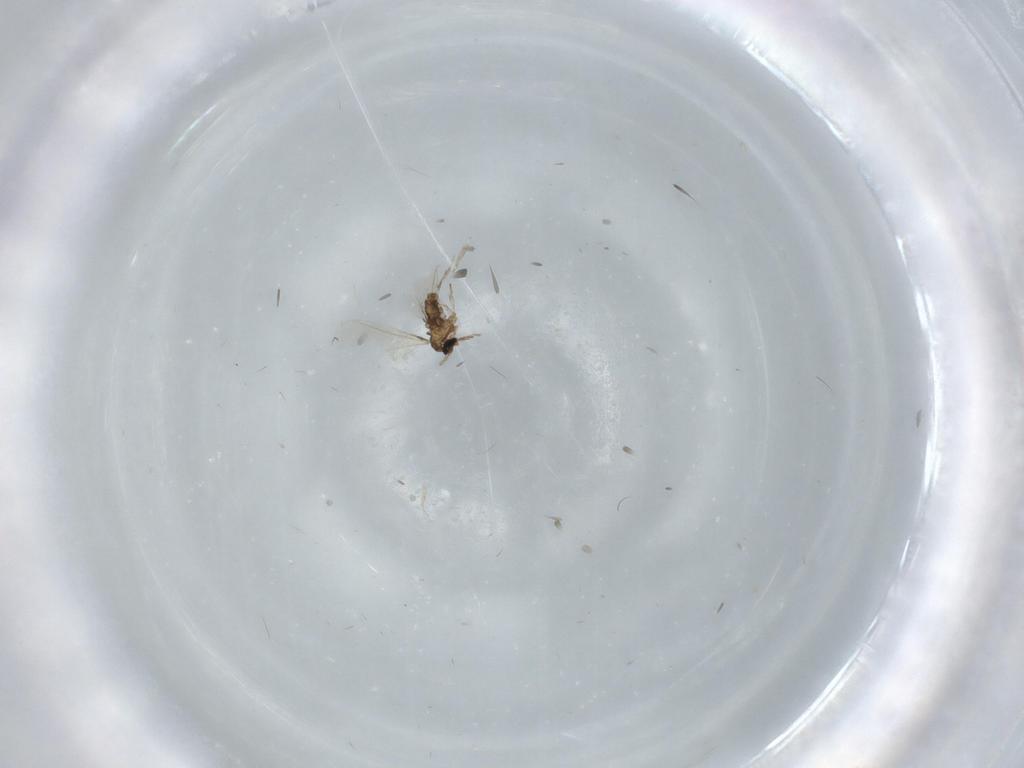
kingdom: Animalia
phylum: Arthropoda
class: Insecta
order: Diptera
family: Cecidomyiidae
